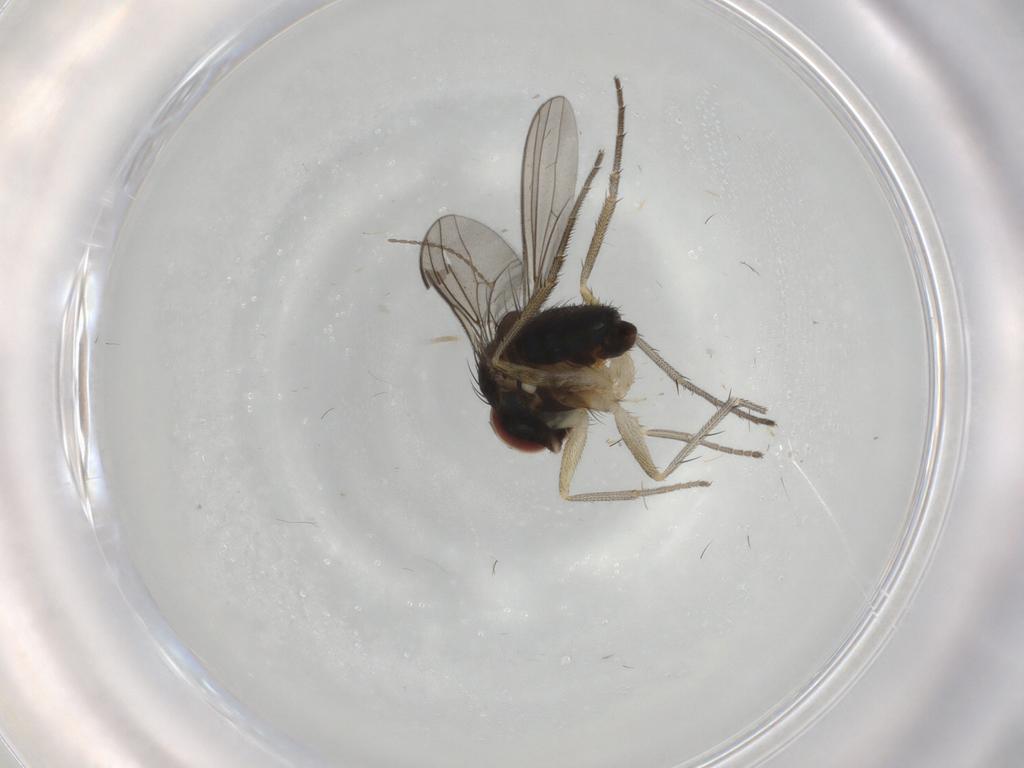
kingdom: Animalia
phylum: Arthropoda
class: Insecta
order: Diptera
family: Dolichopodidae
